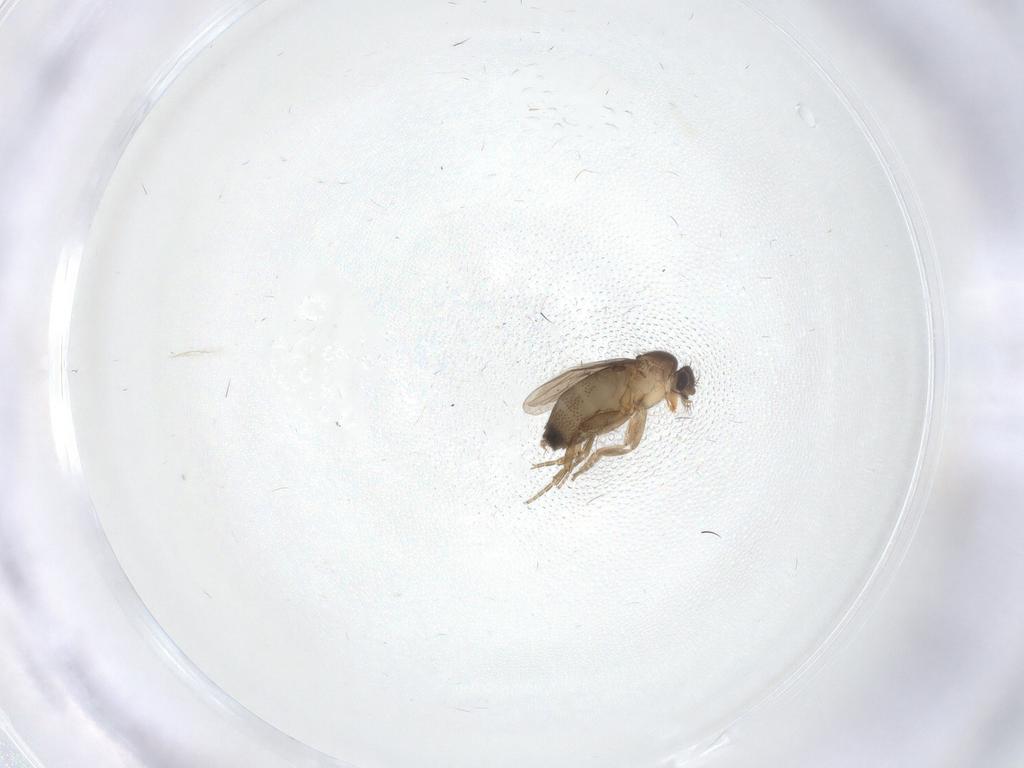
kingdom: Animalia
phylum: Arthropoda
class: Insecta
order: Diptera
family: Phoridae
